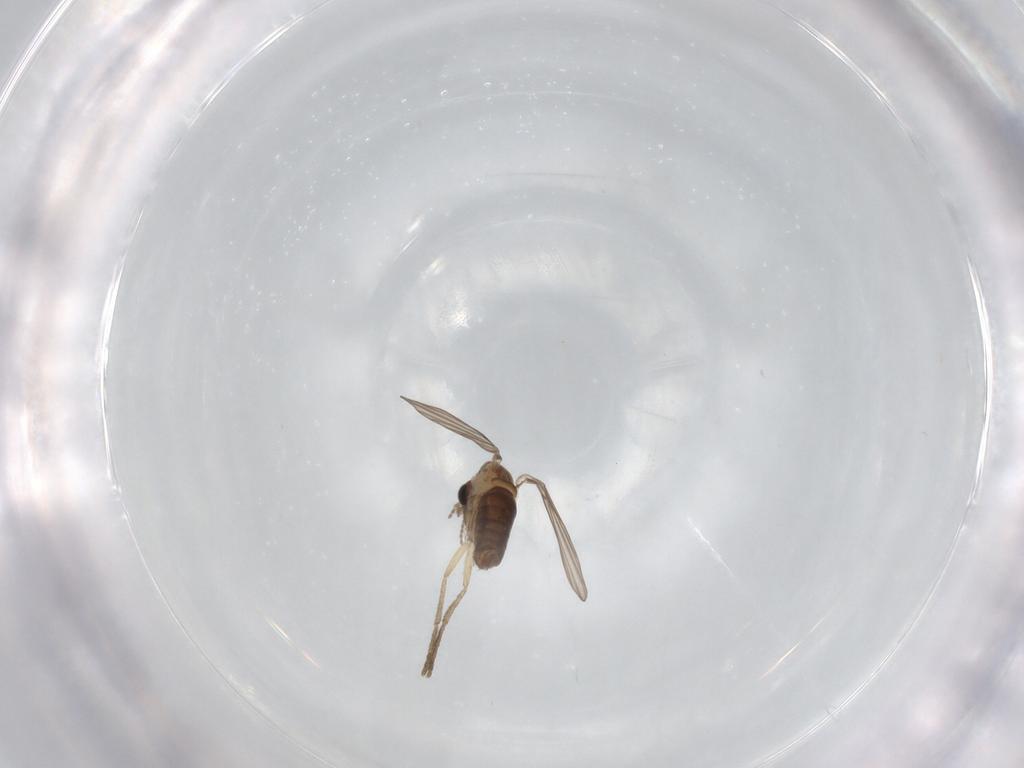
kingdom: Animalia
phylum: Arthropoda
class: Insecta
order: Diptera
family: Psychodidae
